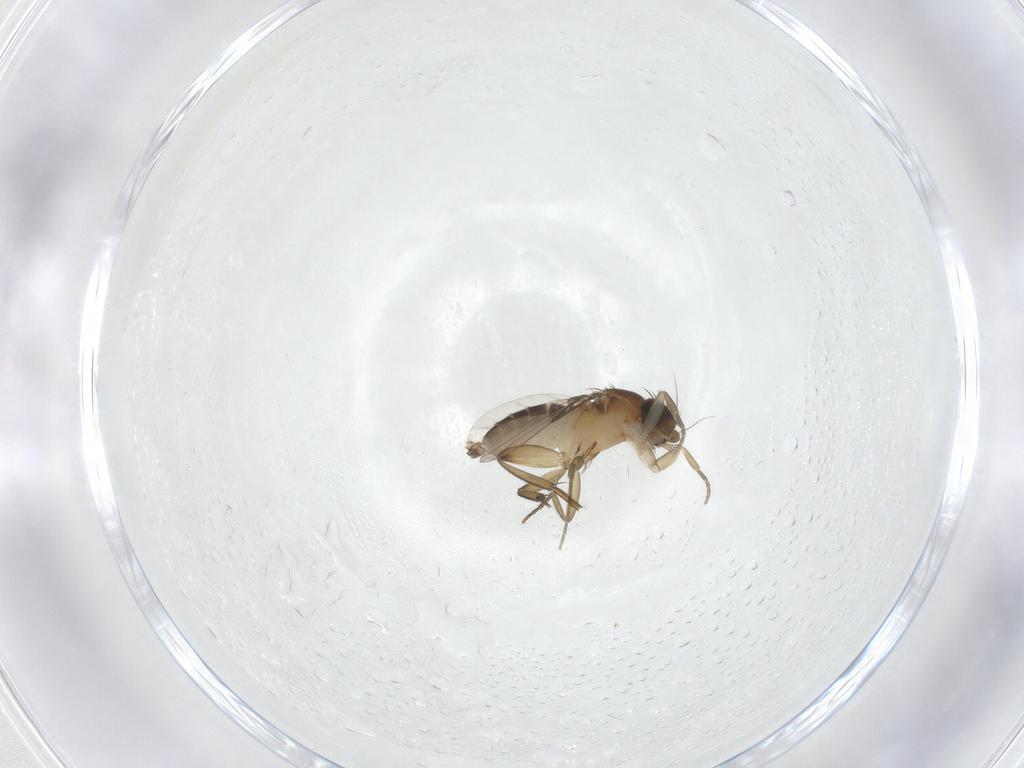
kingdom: Animalia
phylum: Arthropoda
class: Insecta
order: Diptera
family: Phoridae
